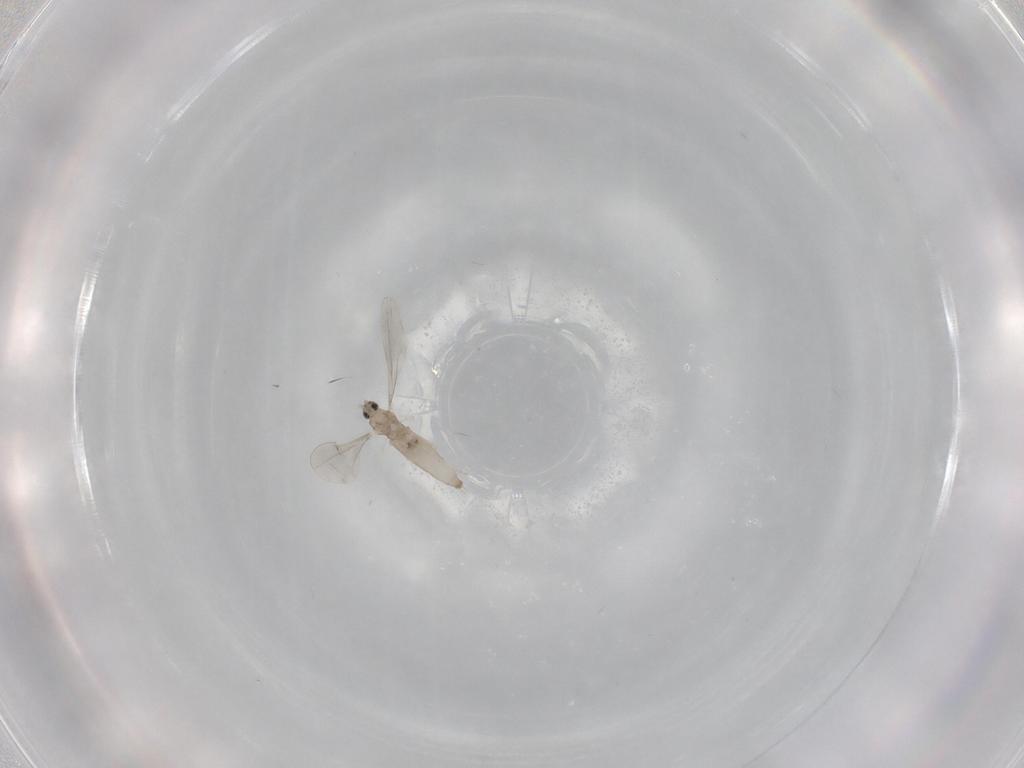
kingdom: Animalia
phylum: Arthropoda
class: Insecta
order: Diptera
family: Cecidomyiidae
